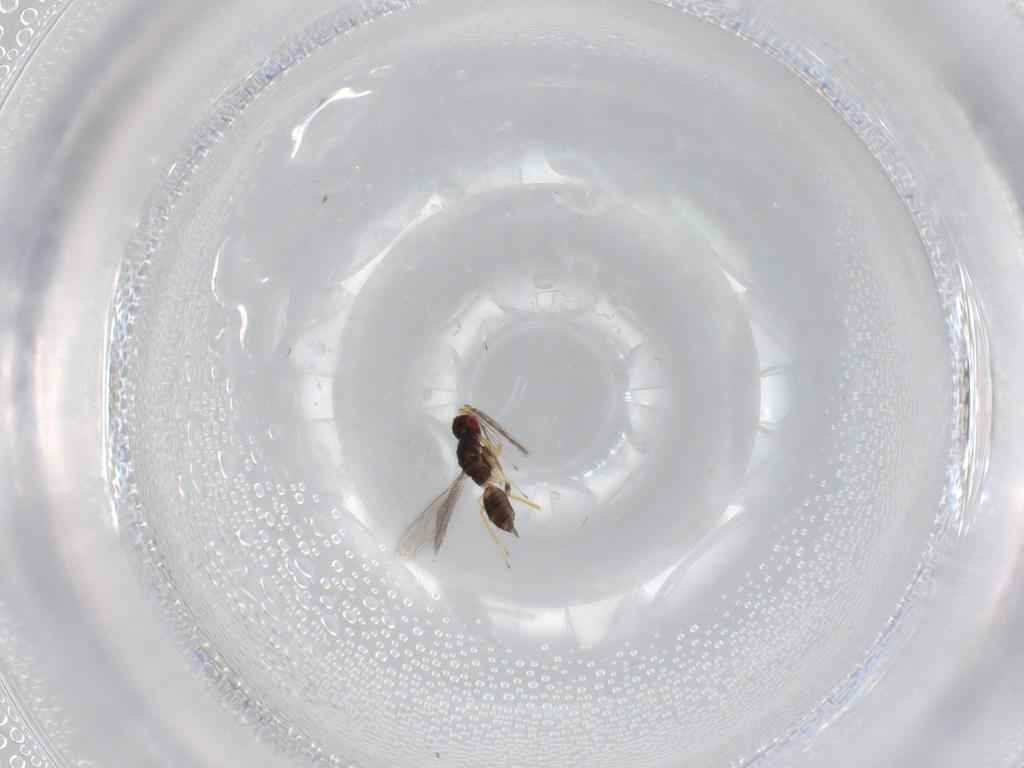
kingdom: Animalia
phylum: Arthropoda
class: Insecta
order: Hymenoptera
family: Eulophidae
